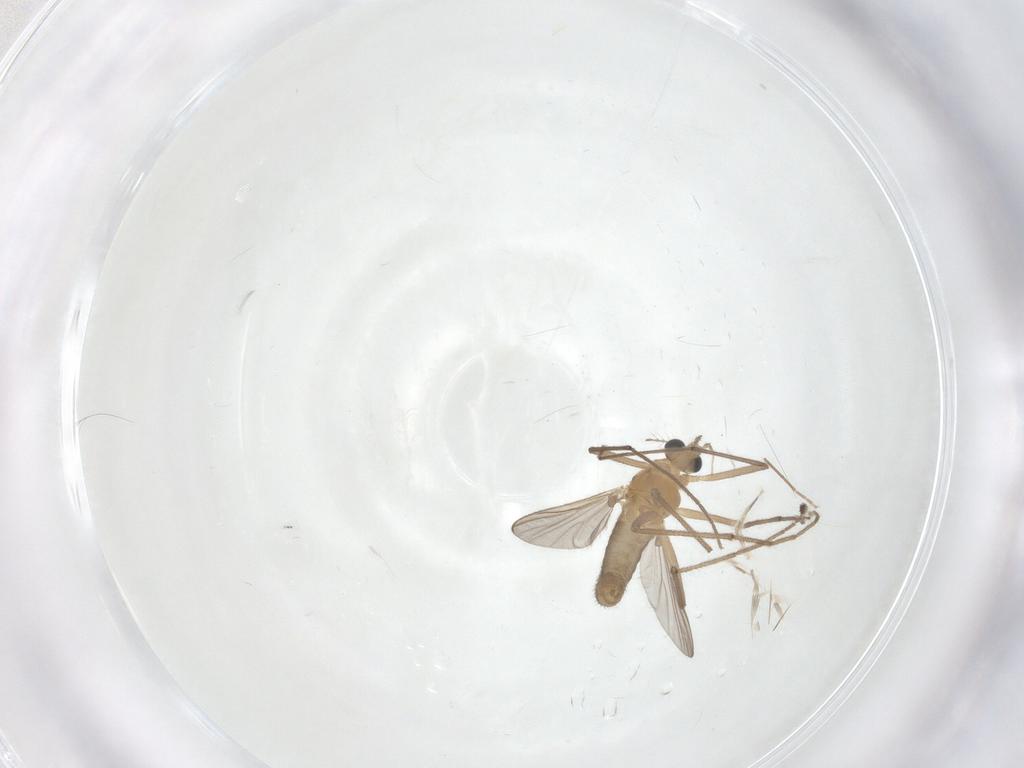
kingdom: Animalia
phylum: Arthropoda
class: Insecta
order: Diptera
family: Chironomidae
